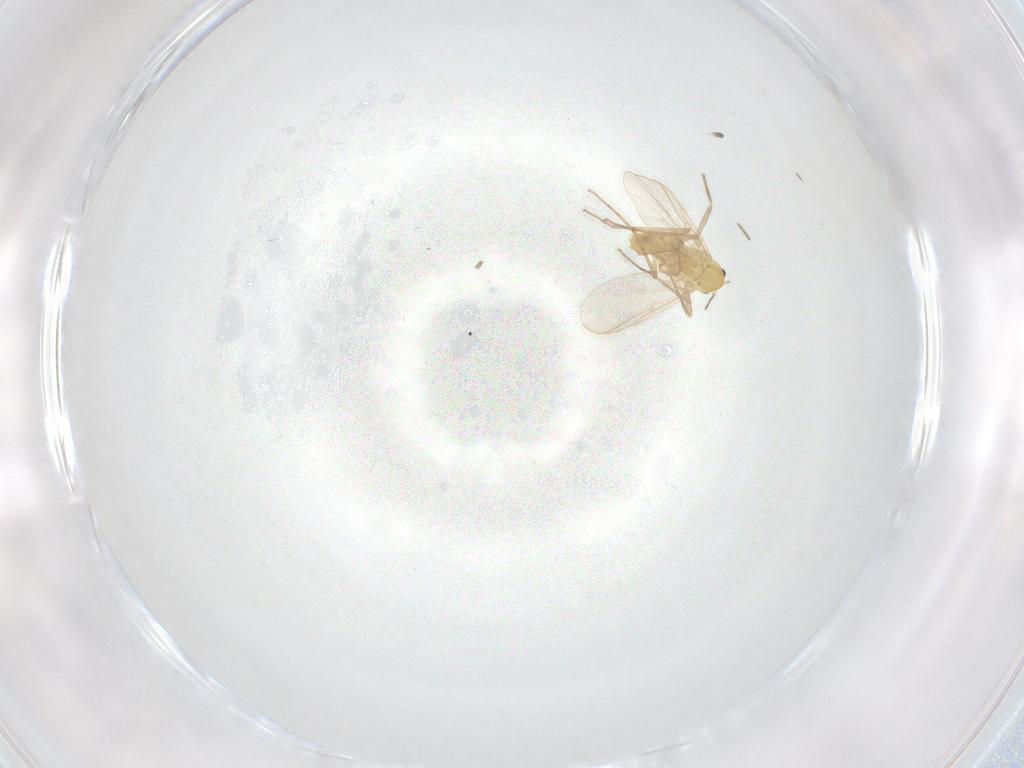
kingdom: Animalia
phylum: Arthropoda
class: Insecta
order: Diptera
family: Chironomidae
